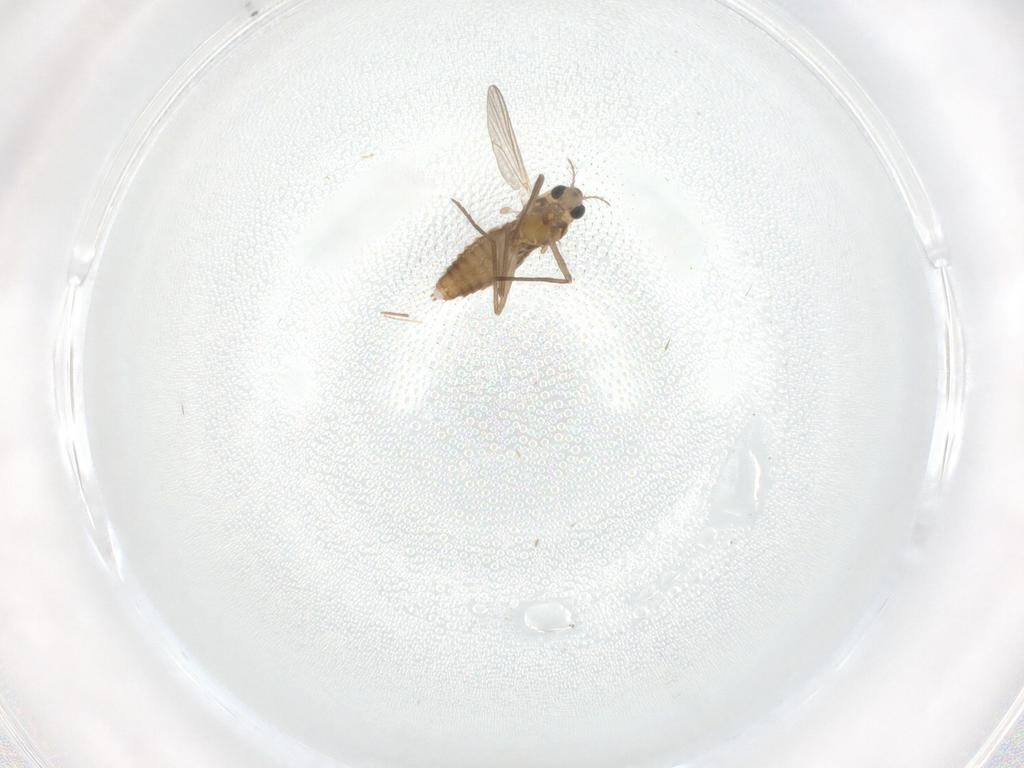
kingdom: Animalia
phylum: Arthropoda
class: Insecta
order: Diptera
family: Chironomidae
